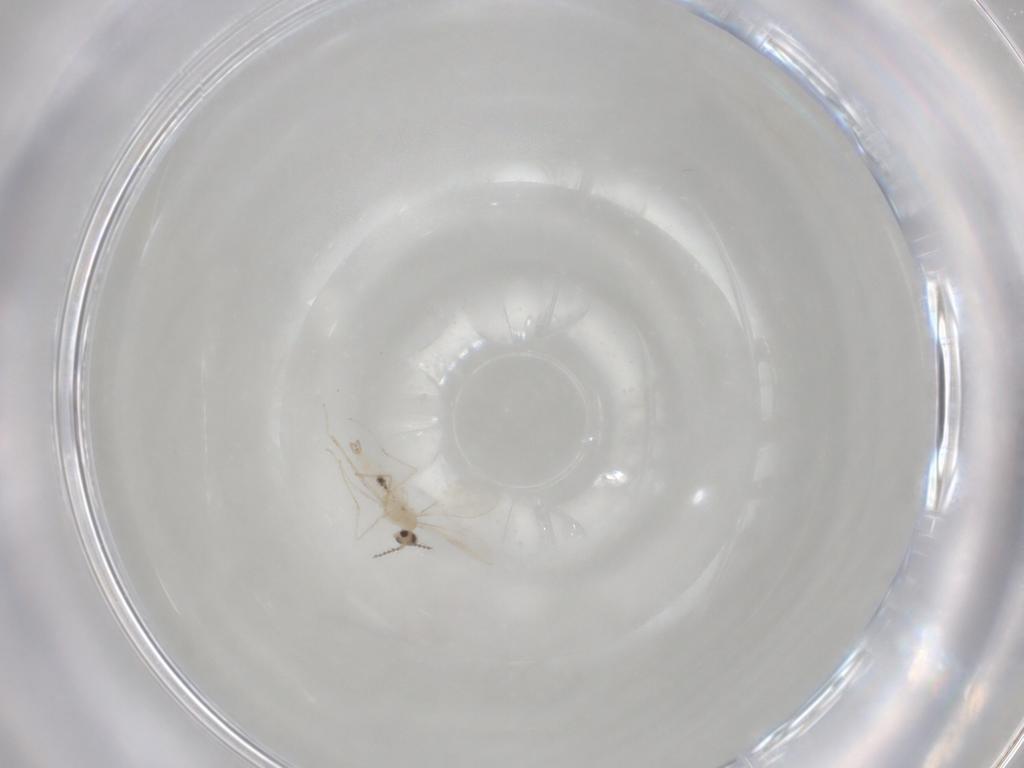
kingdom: Animalia
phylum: Arthropoda
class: Insecta
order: Diptera
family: Cecidomyiidae
